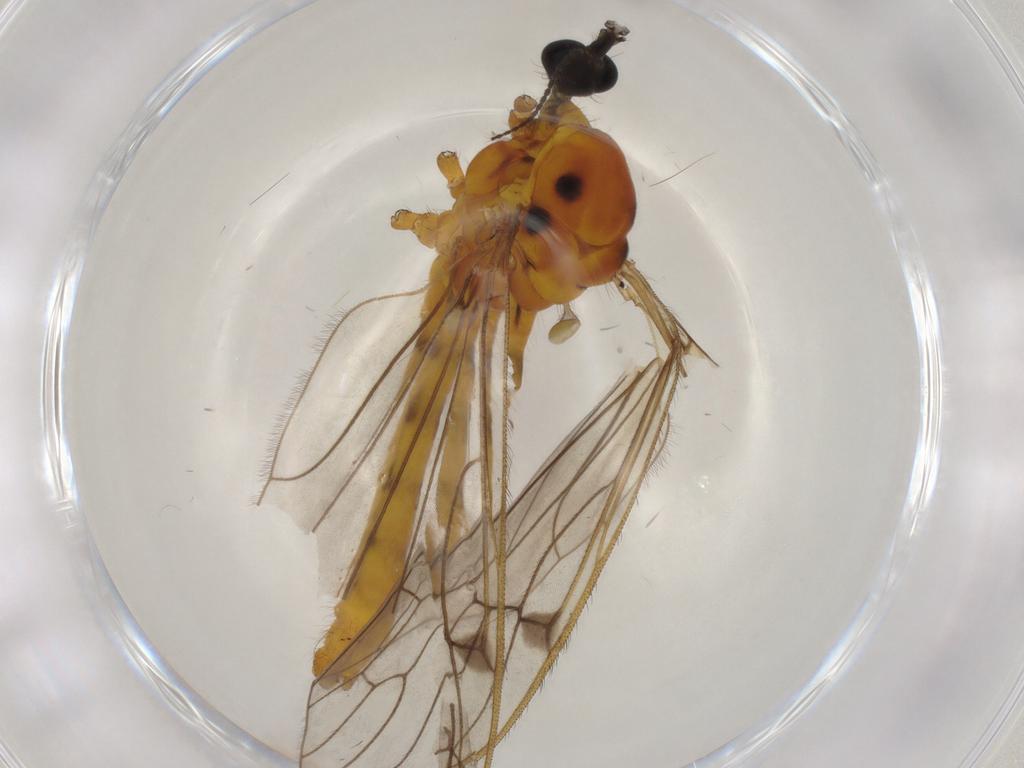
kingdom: Animalia
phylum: Arthropoda
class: Insecta
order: Diptera
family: Limoniidae
